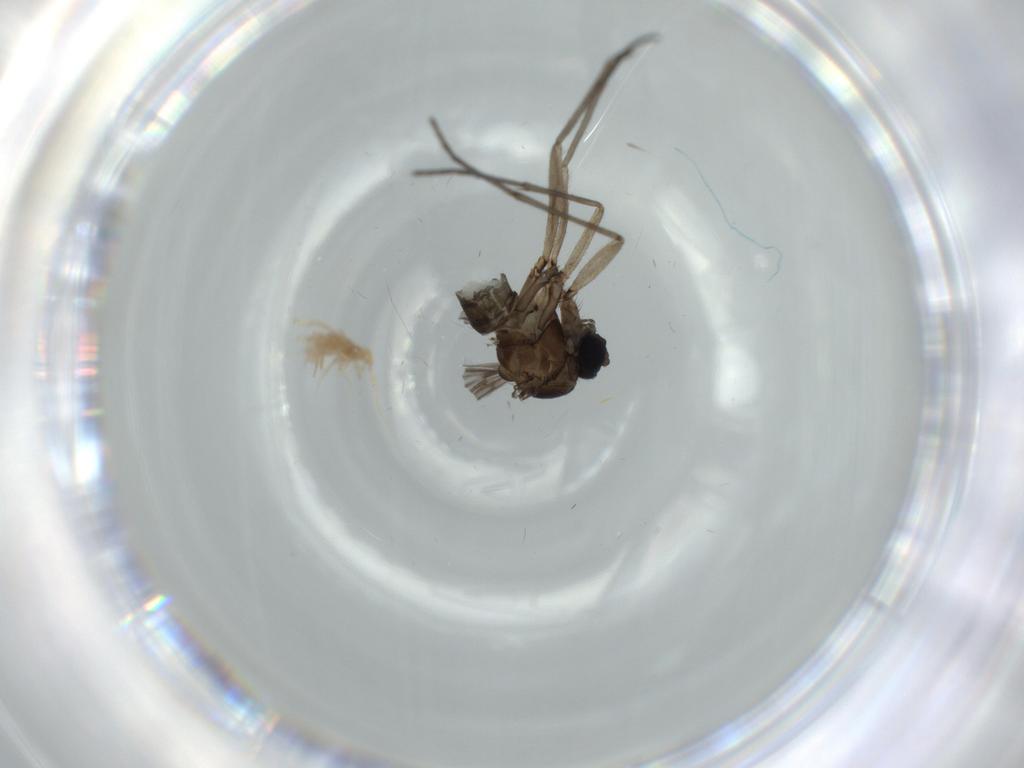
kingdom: Animalia
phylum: Arthropoda
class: Insecta
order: Diptera
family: Sciaridae
